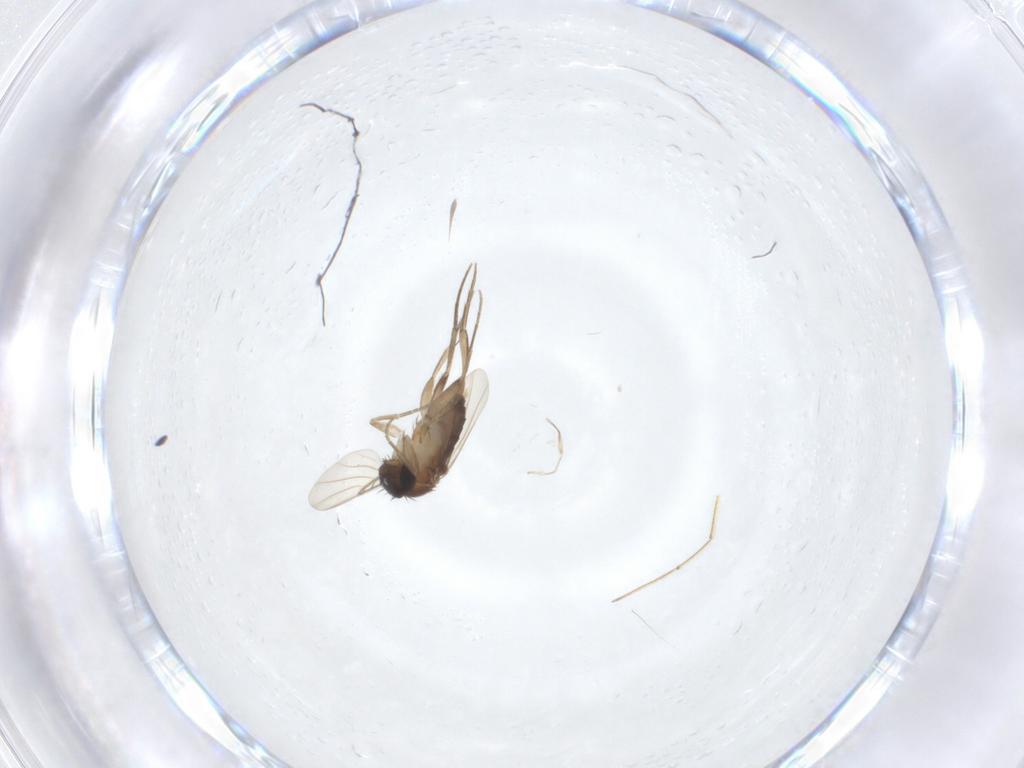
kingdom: Animalia
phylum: Arthropoda
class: Insecta
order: Diptera
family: Phoridae
